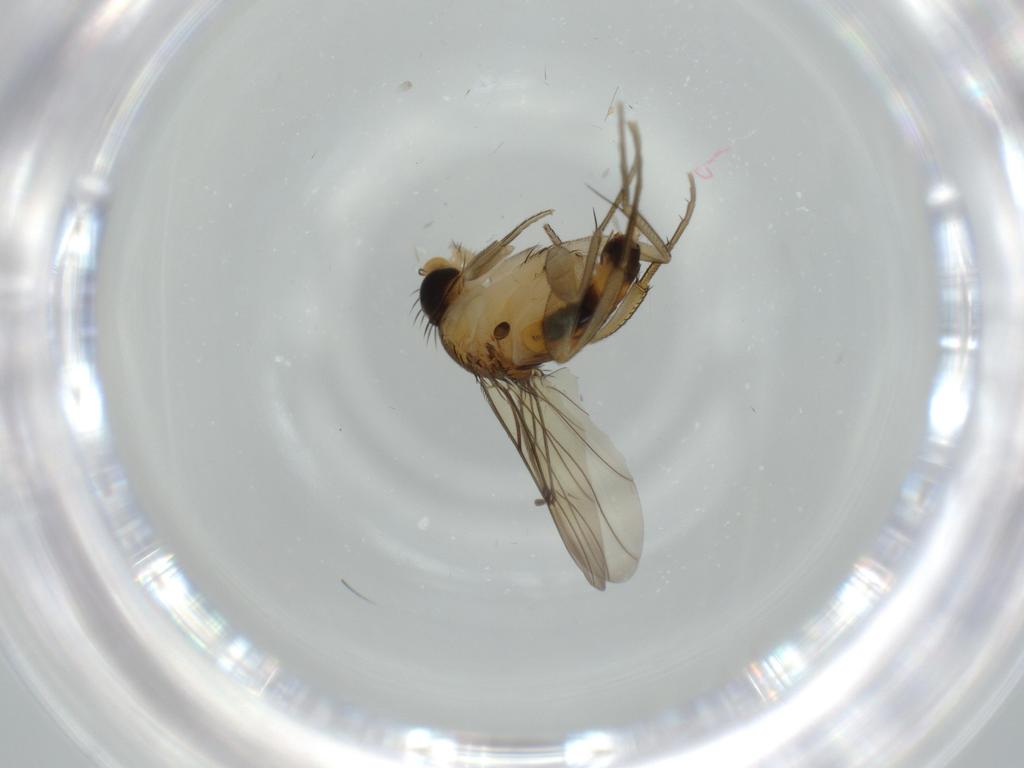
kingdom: Animalia
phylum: Arthropoda
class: Insecta
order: Diptera
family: Phoridae
